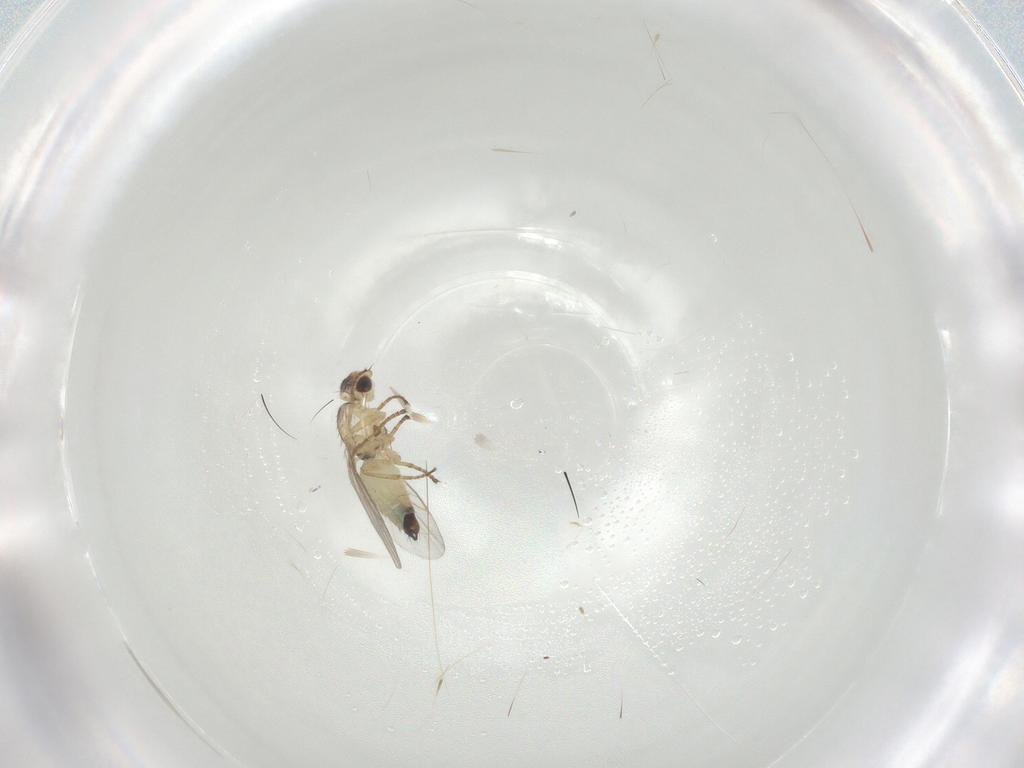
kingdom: Animalia
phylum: Arthropoda
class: Insecta
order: Diptera
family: Agromyzidae
